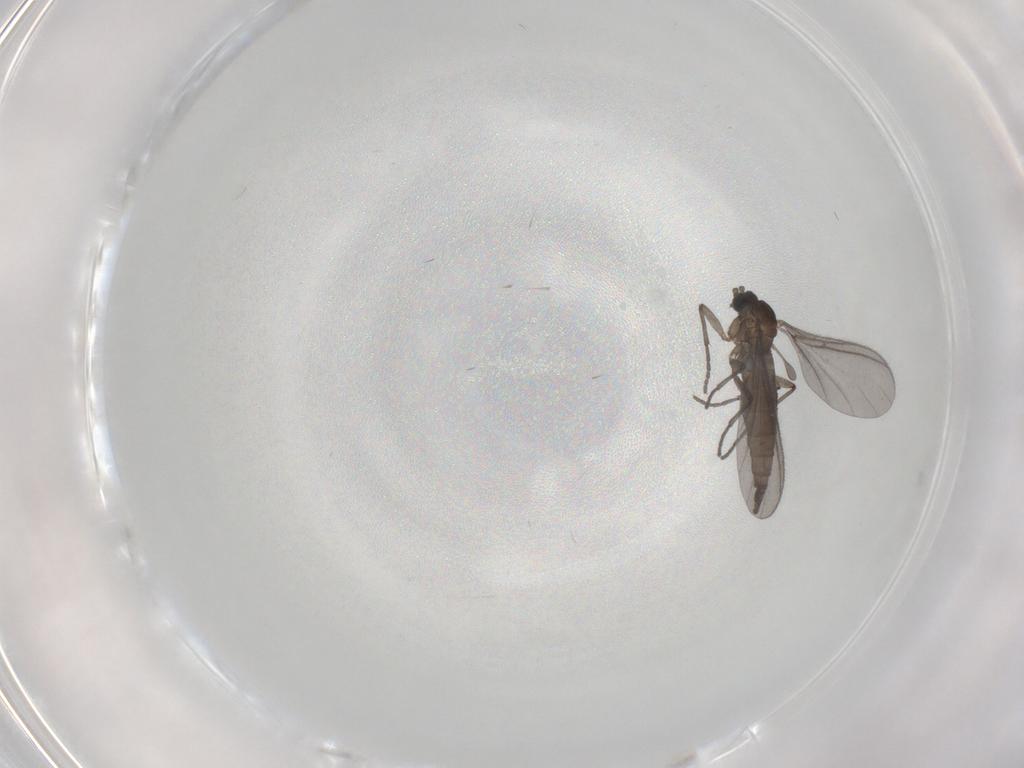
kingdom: Animalia
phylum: Arthropoda
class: Insecta
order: Diptera
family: Sciaridae
